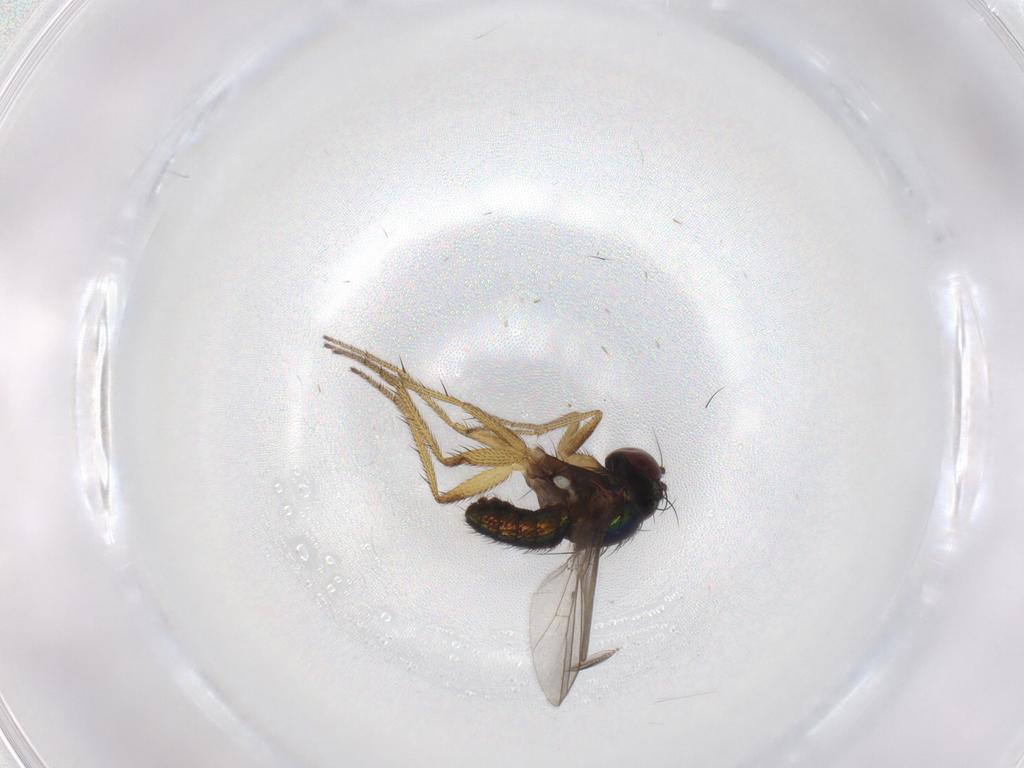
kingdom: Animalia
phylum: Arthropoda
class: Insecta
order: Diptera
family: Dolichopodidae
